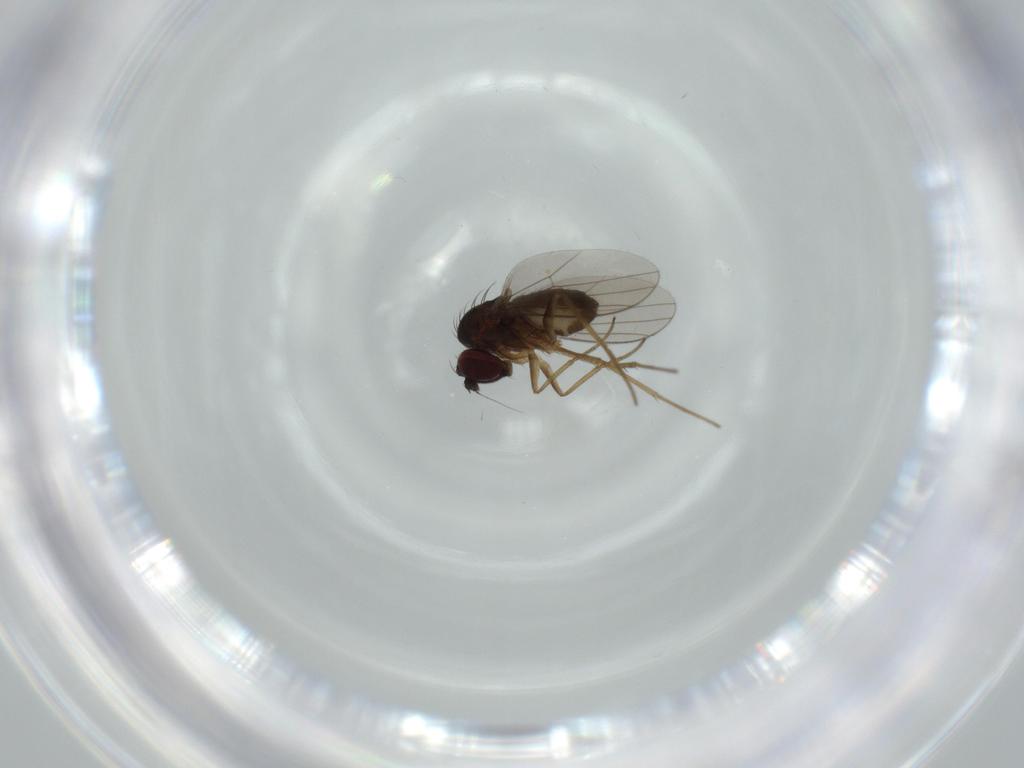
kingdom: Animalia
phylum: Arthropoda
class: Insecta
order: Diptera
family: Dolichopodidae
